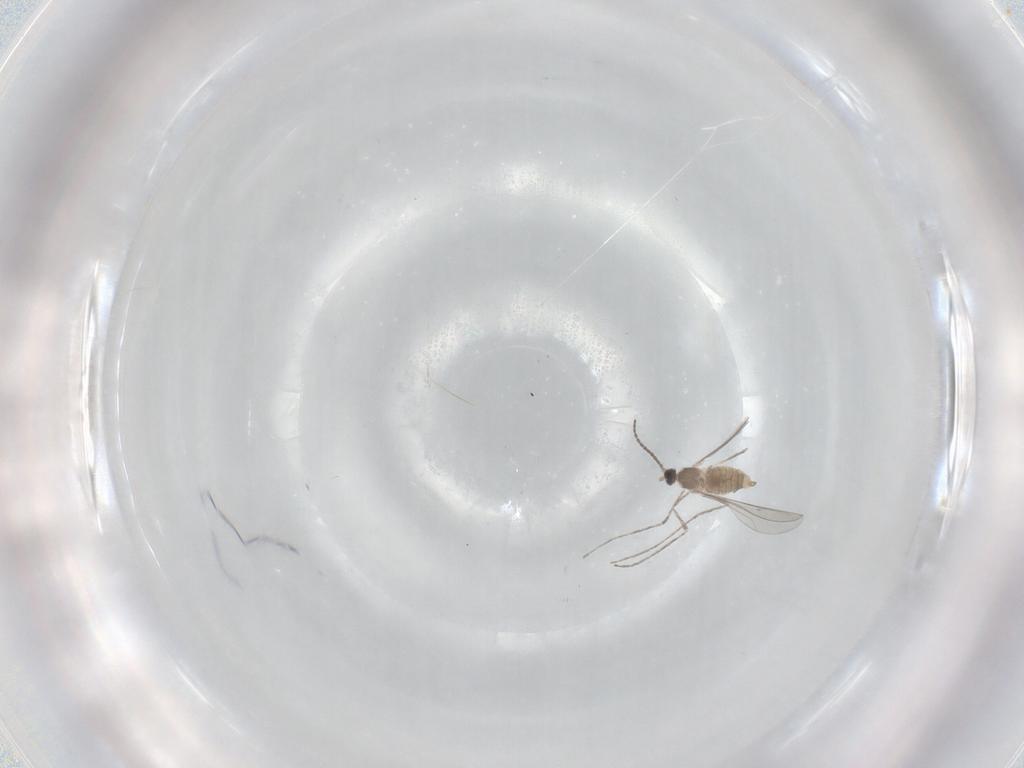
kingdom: Animalia
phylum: Arthropoda
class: Insecta
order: Diptera
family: Cecidomyiidae
